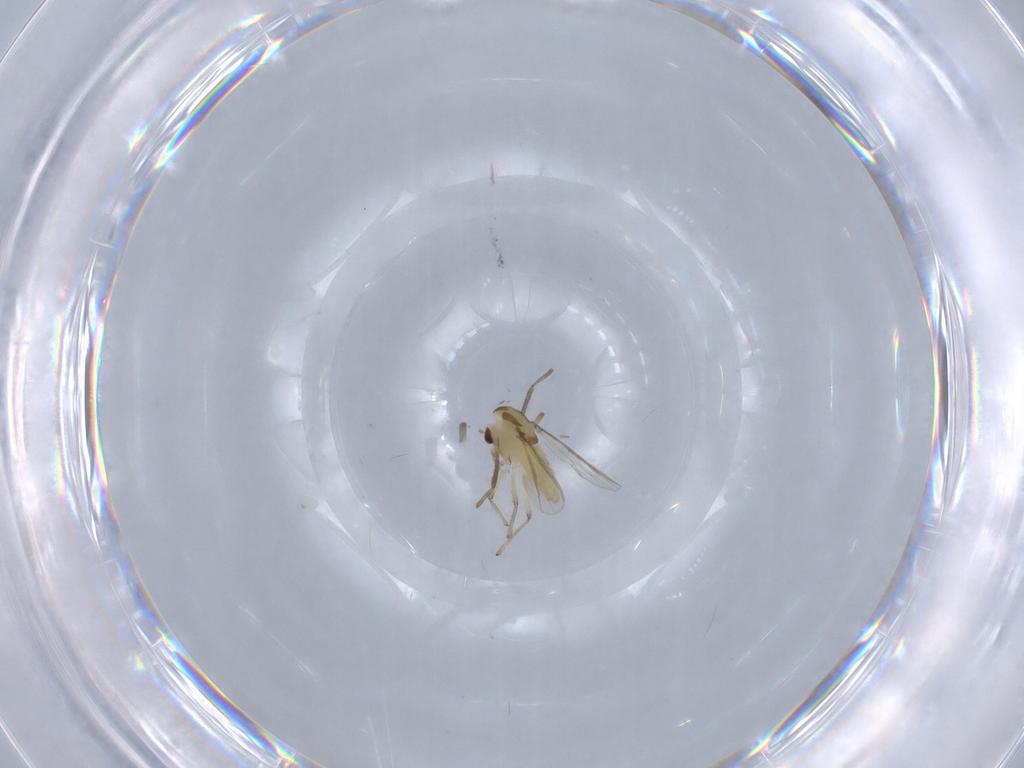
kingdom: Animalia
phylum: Arthropoda
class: Insecta
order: Diptera
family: Chironomidae
